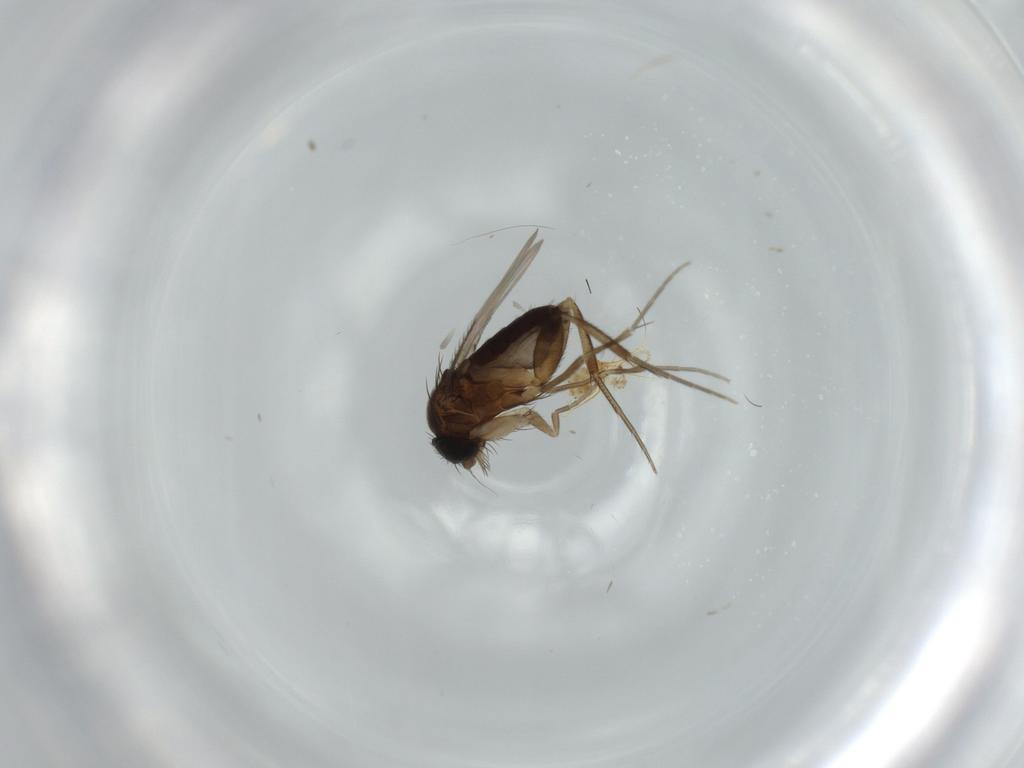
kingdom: Animalia
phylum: Arthropoda
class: Insecta
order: Diptera
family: Phoridae
